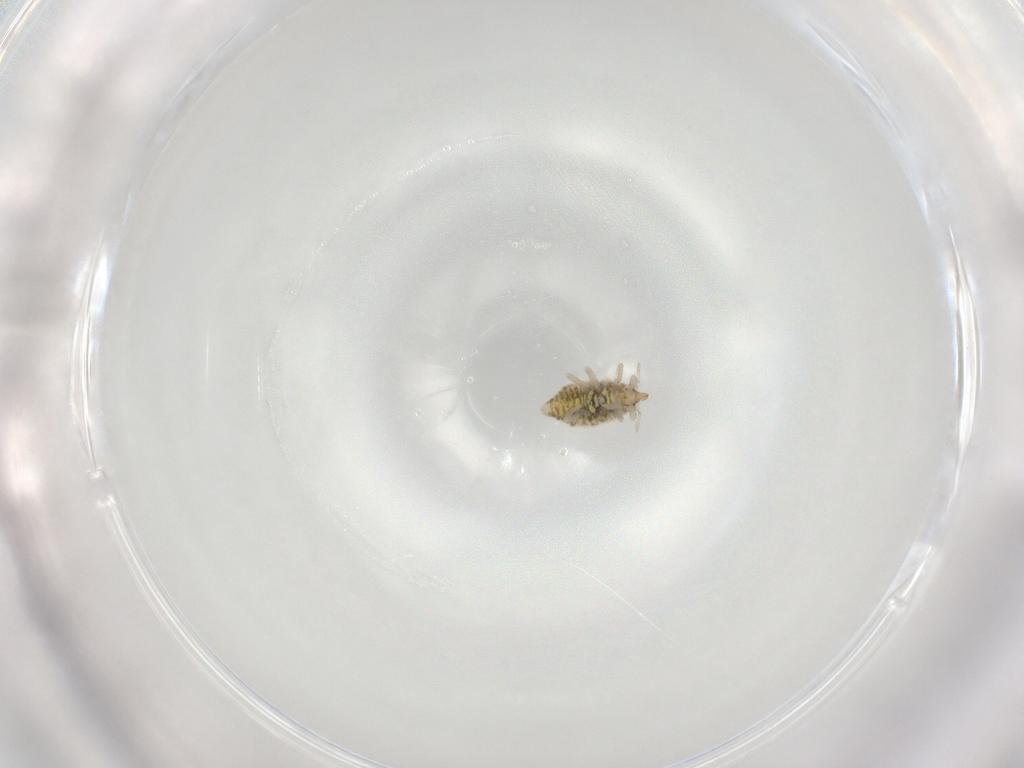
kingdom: Animalia
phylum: Arthropoda
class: Insecta
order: Neuroptera
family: Coniopterygidae
